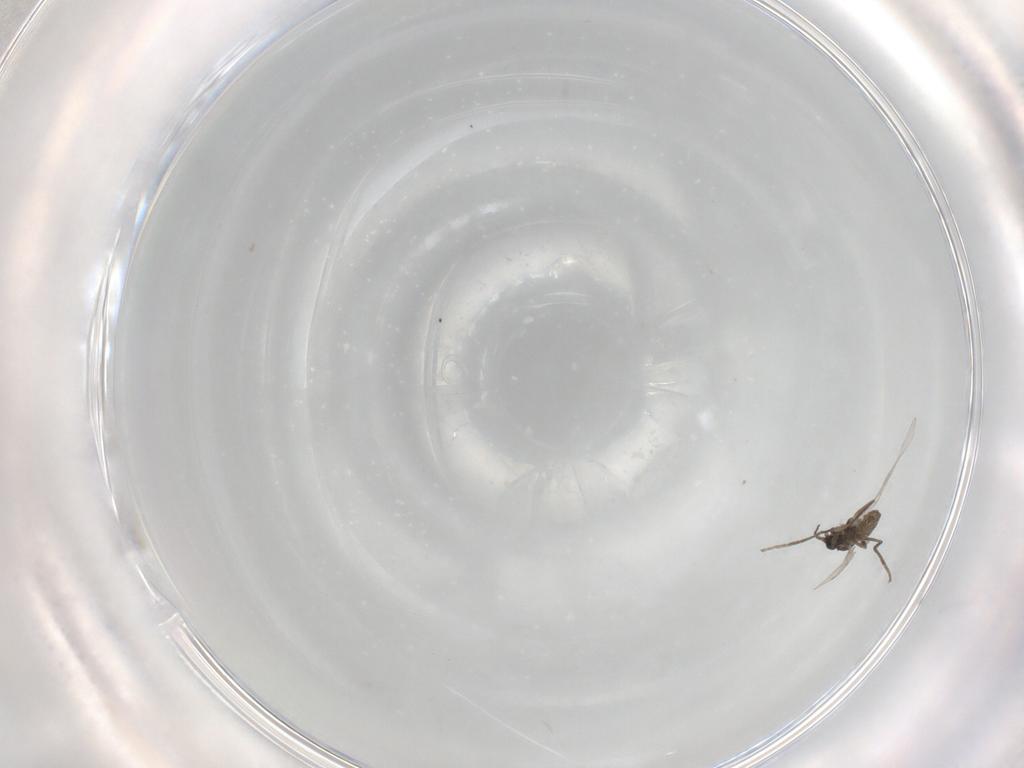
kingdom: Animalia
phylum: Arthropoda
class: Insecta
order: Diptera
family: Cecidomyiidae
